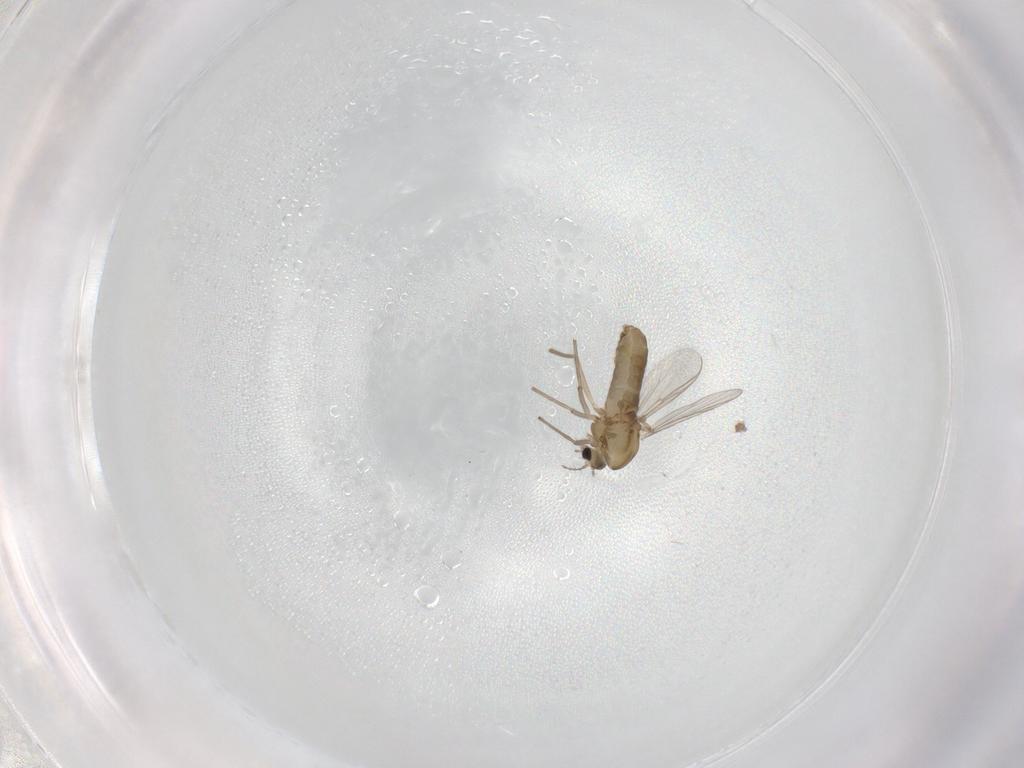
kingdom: Animalia
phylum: Arthropoda
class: Insecta
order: Diptera
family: Chironomidae
